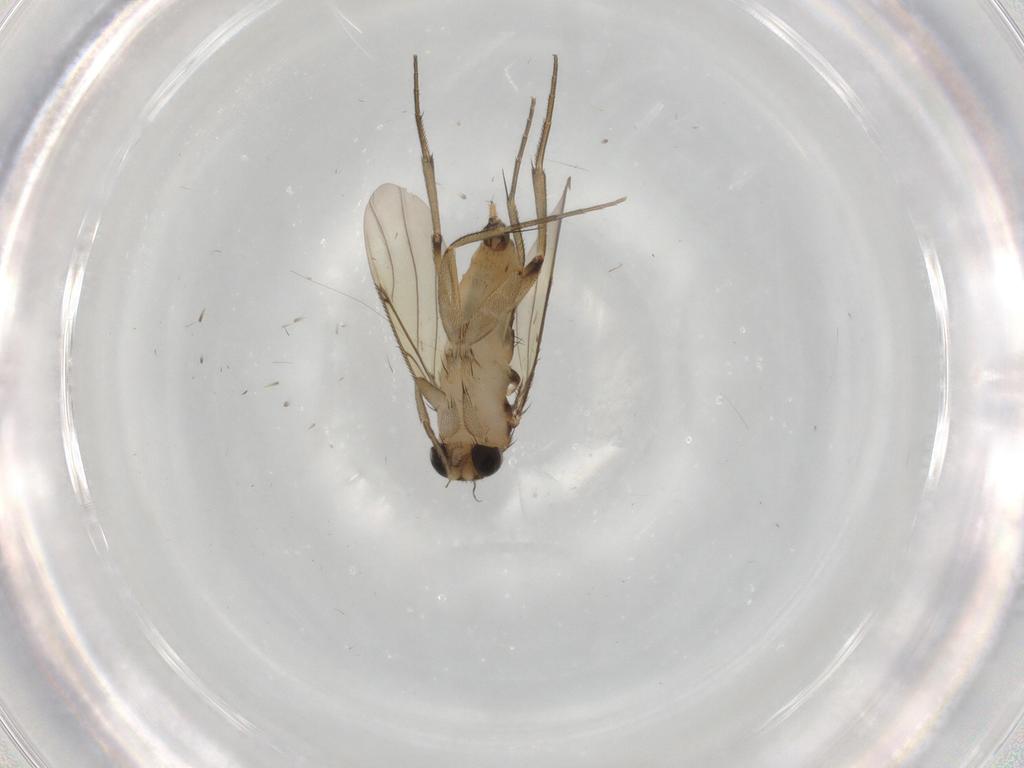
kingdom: Animalia
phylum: Arthropoda
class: Insecta
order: Diptera
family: Phoridae
